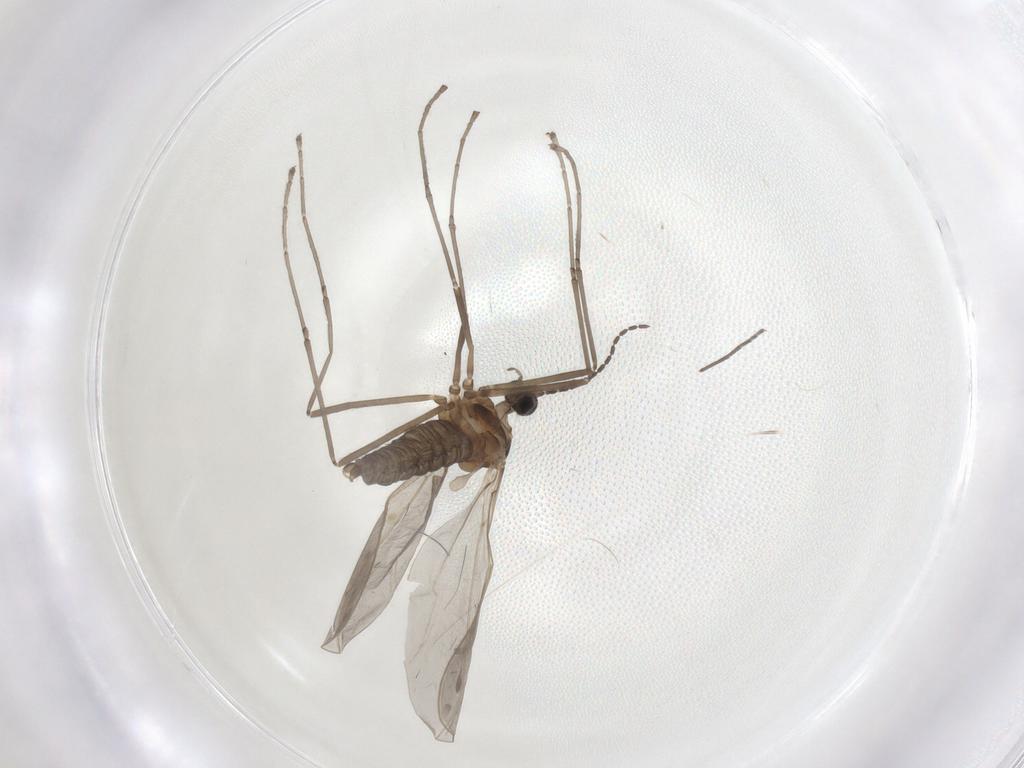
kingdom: Animalia
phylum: Arthropoda
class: Insecta
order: Diptera
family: Sciaridae
